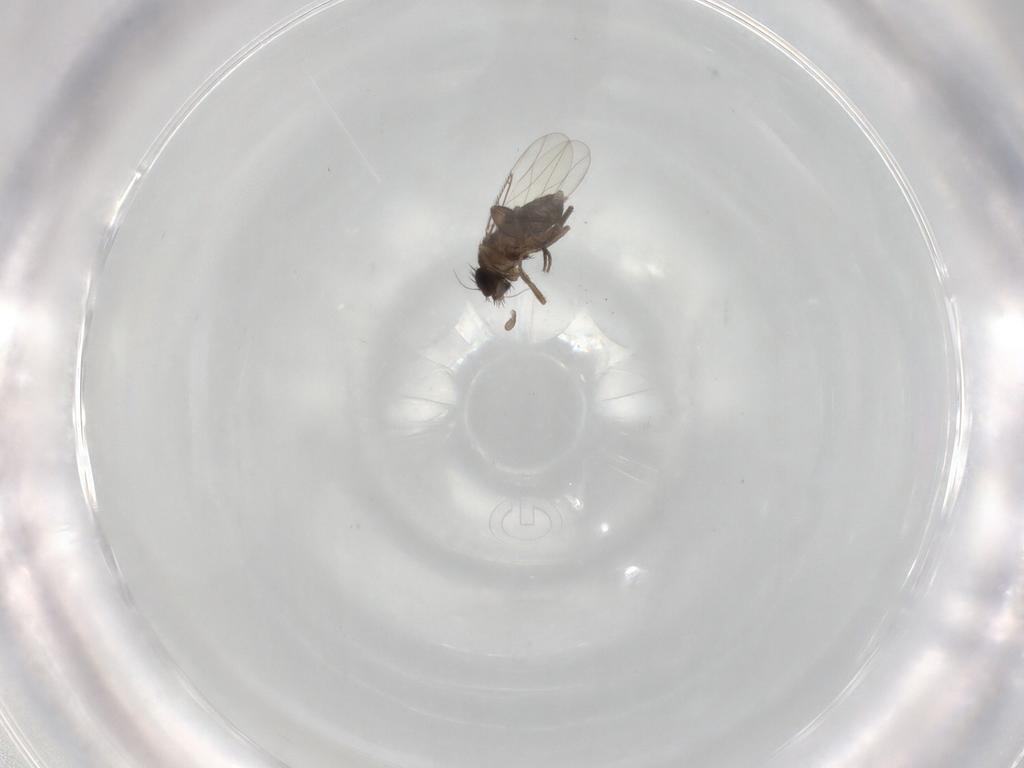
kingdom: Animalia
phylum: Arthropoda
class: Insecta
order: Diptera
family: Phoridae
